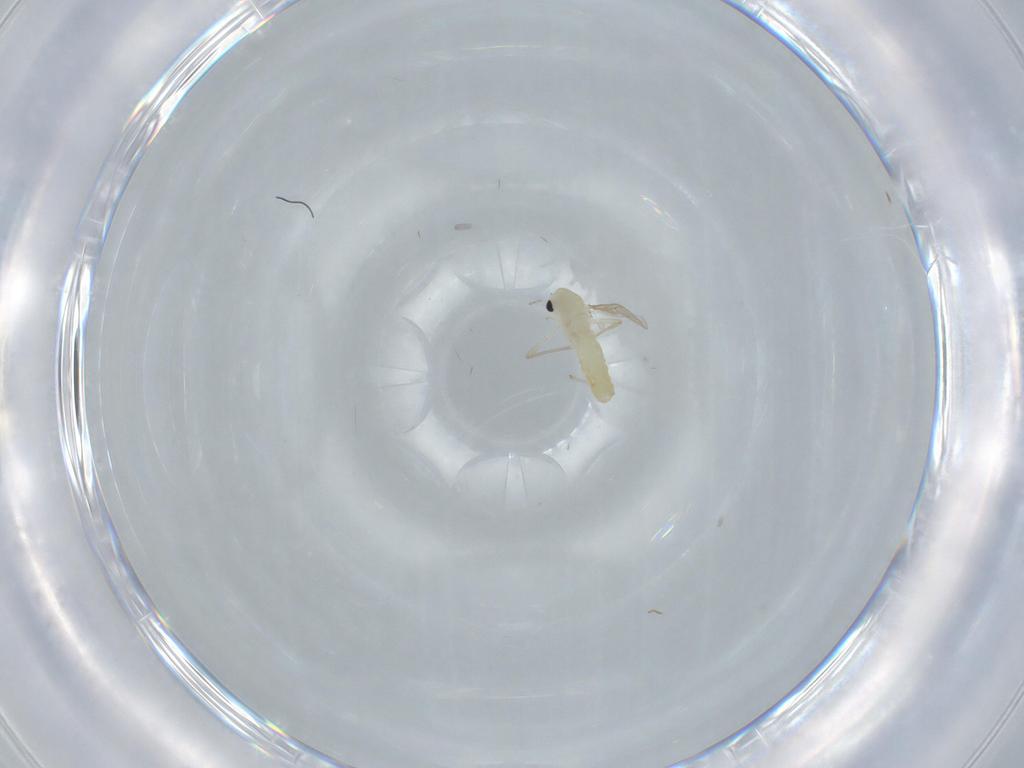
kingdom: Animalia
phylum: Arthropoda
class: Insecta
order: Diptera
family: Chironomidae
